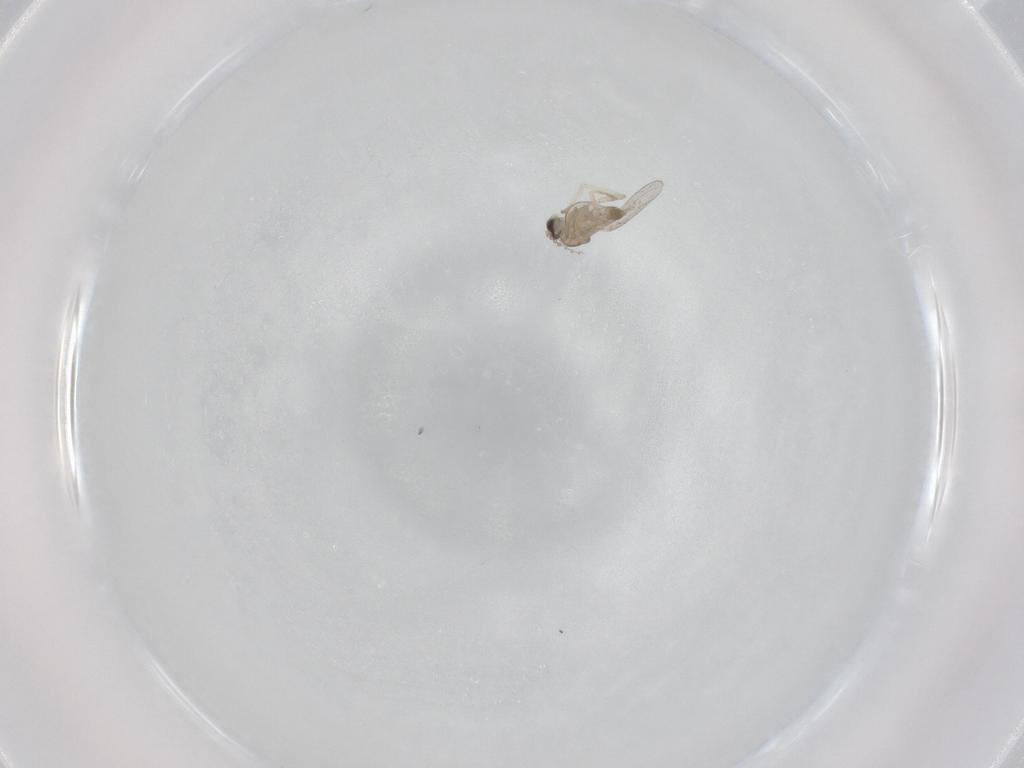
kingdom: Animalia
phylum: Arthropoda
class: Insecta
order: Diptera
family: Cecidomyiidae
